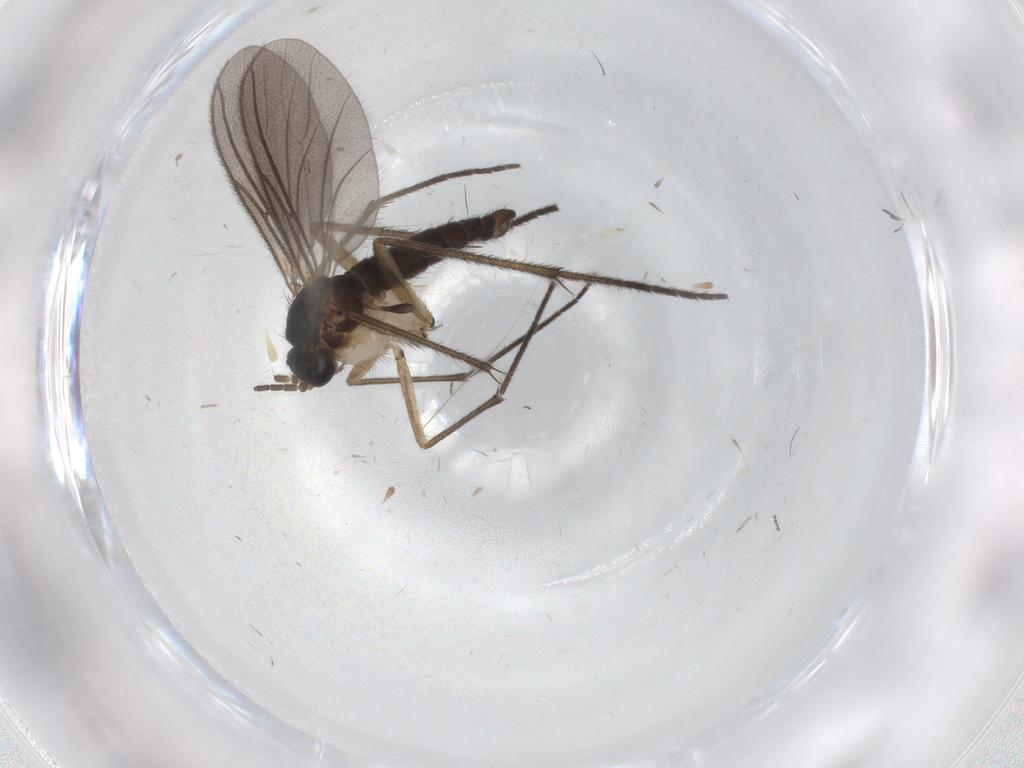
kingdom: Animalia
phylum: Arthropoda
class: Insecta
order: Diptera
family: Sciaridae
